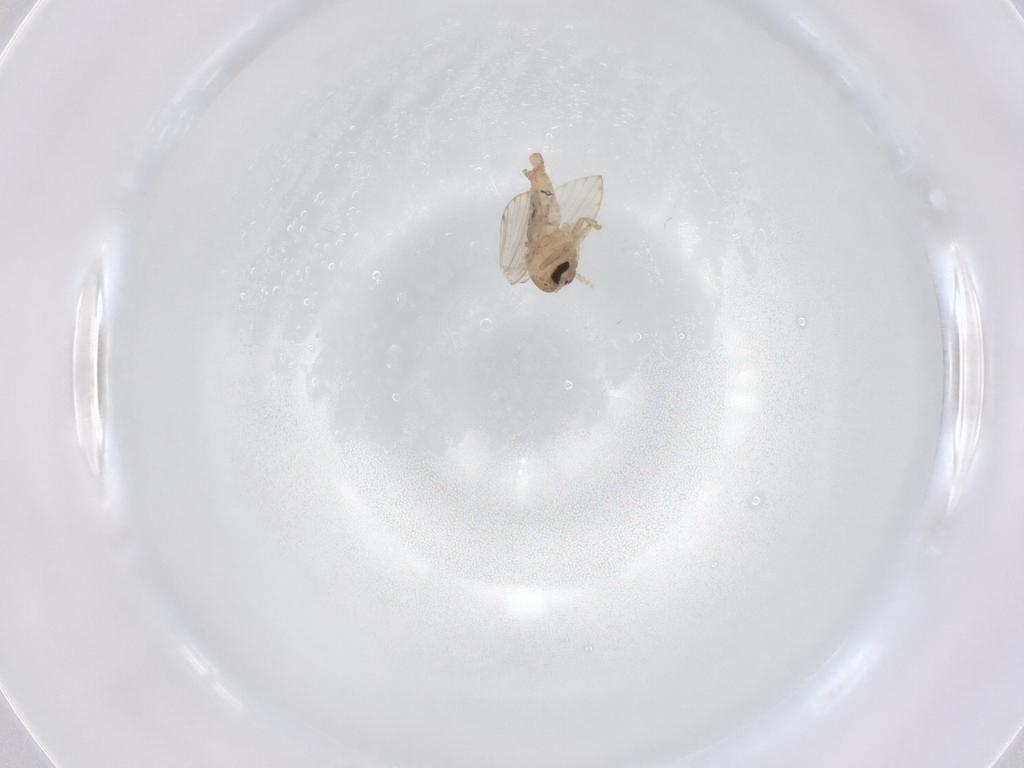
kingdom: Animalia
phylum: Arthropoda
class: Insecta
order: Diptera
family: Psychodidae
